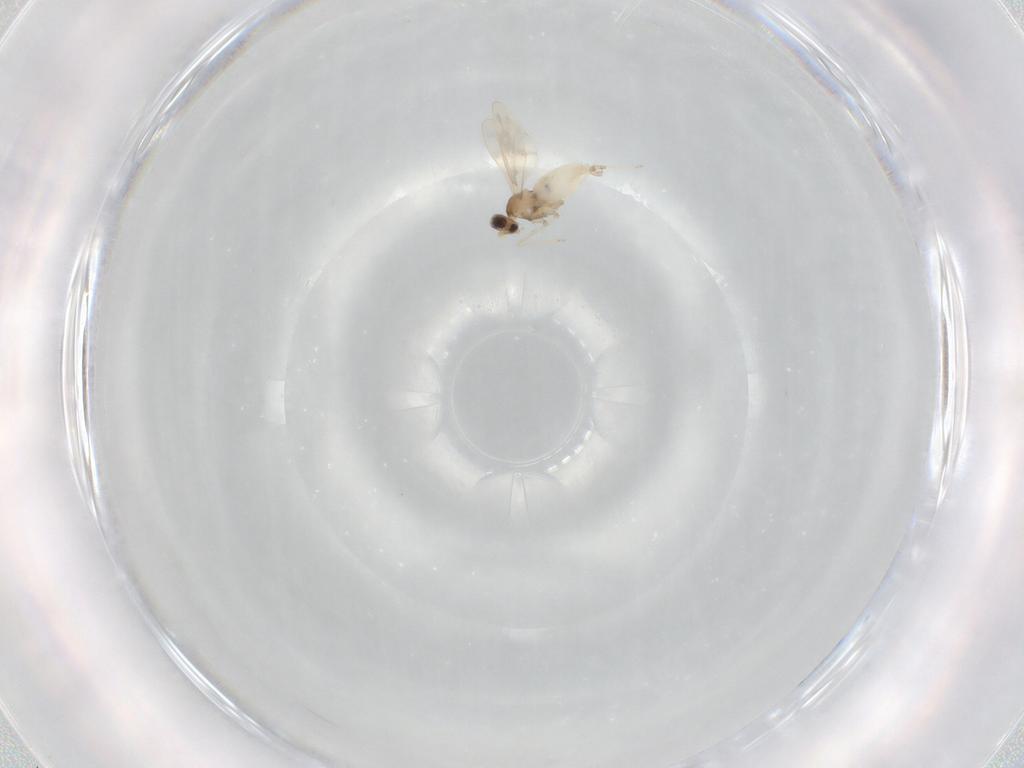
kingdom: Animalia
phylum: Arthropoda
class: Insecta
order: Diptera
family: Cecidomyiidae
